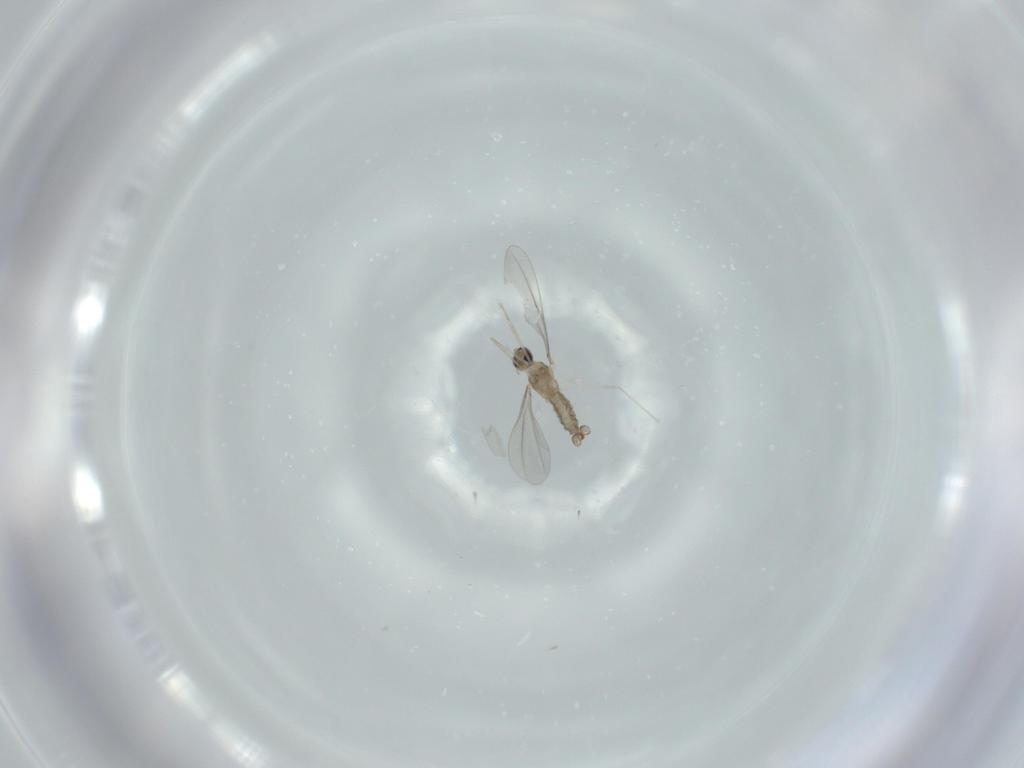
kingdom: Animalia
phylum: Arthropoda
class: Insecta
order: Diptera
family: Cecidomyiidae
